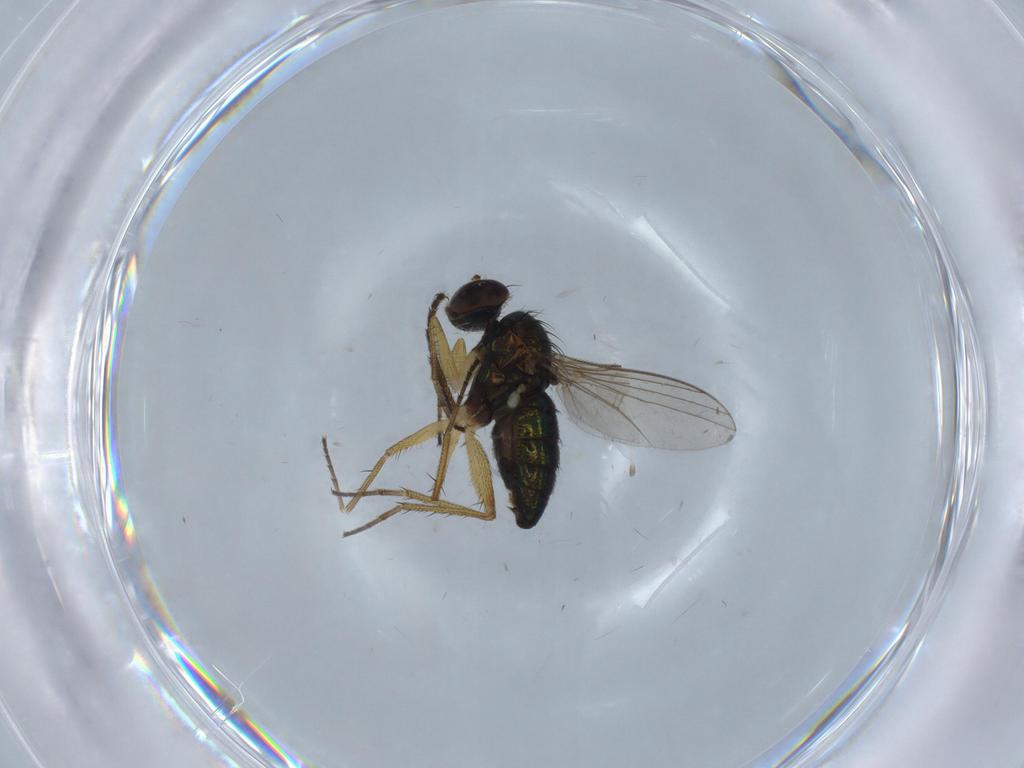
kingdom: Animalia
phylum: Arthropoda
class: Insecta
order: Diptera
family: Dolichopodidae
